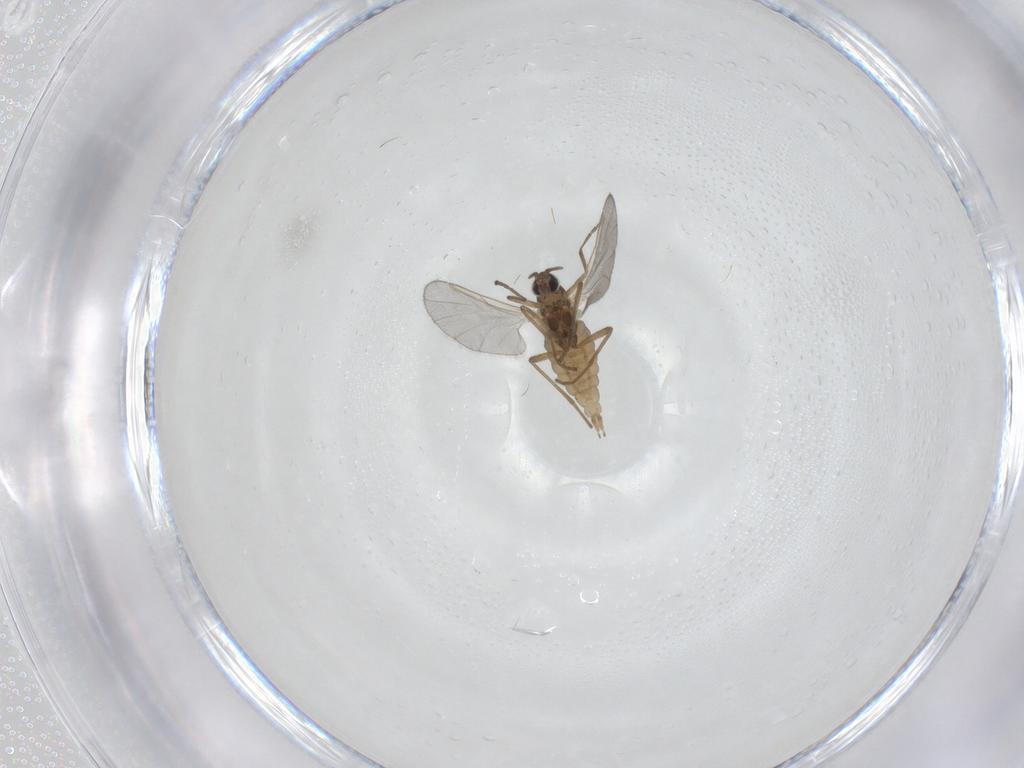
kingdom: Animalia
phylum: Arthropoda
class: Insecta
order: Diptera
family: Cecidomyiidae
